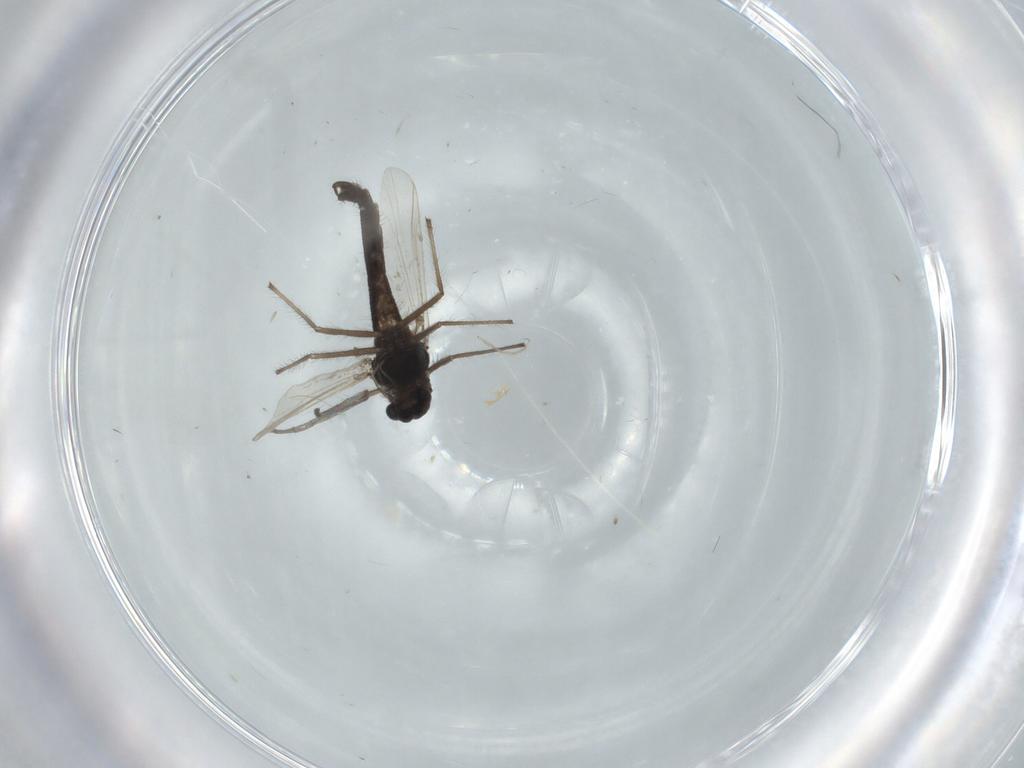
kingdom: Animalia
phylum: Arthropoda
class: Insecta
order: Diptera
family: Chironomidae
